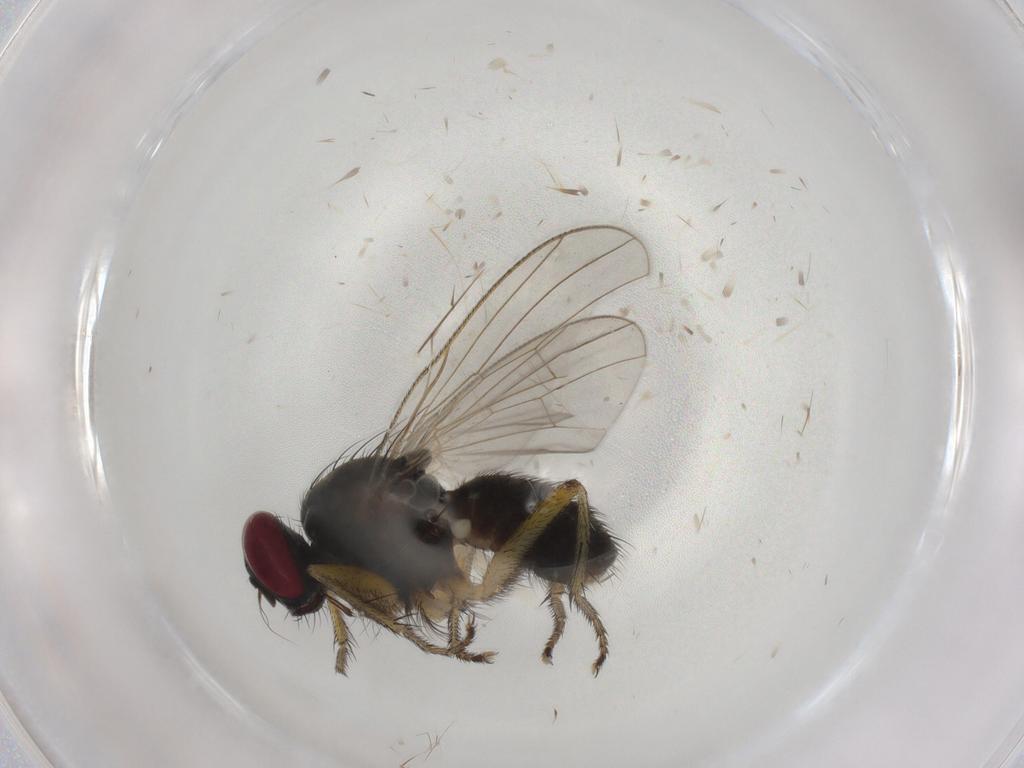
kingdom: Animalia
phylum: Arthropoda
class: Insecta
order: Diptera
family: Muscidae
